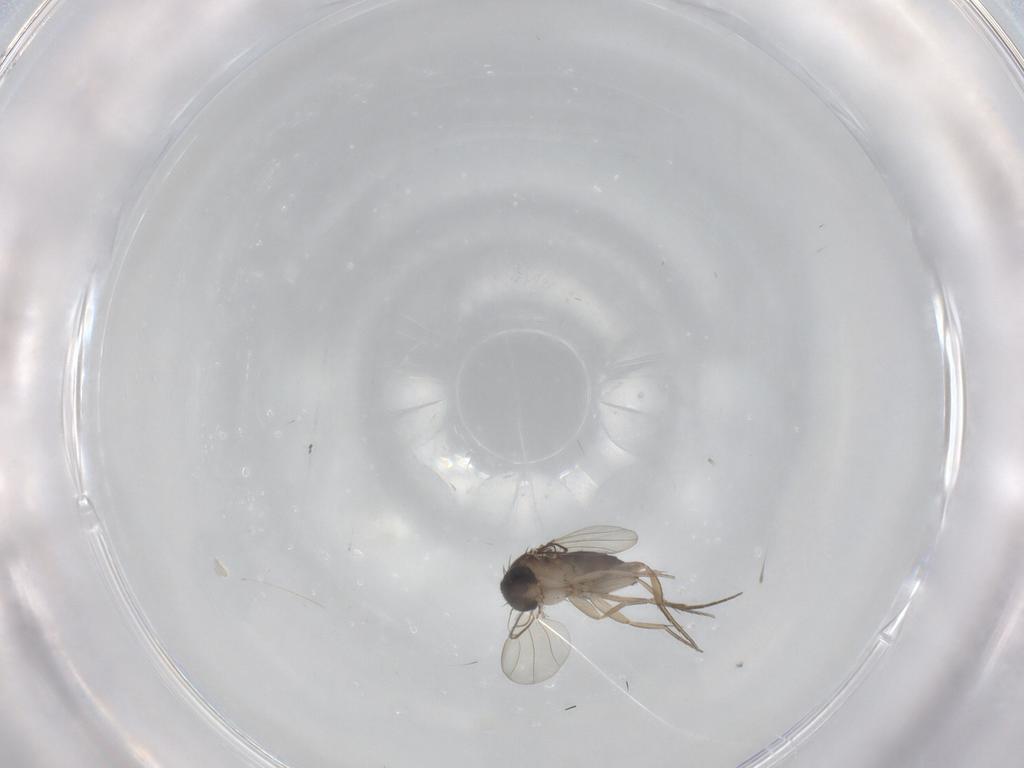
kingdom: Animalia
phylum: Arthropoda
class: Insecta
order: Diptera
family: Phoridae
